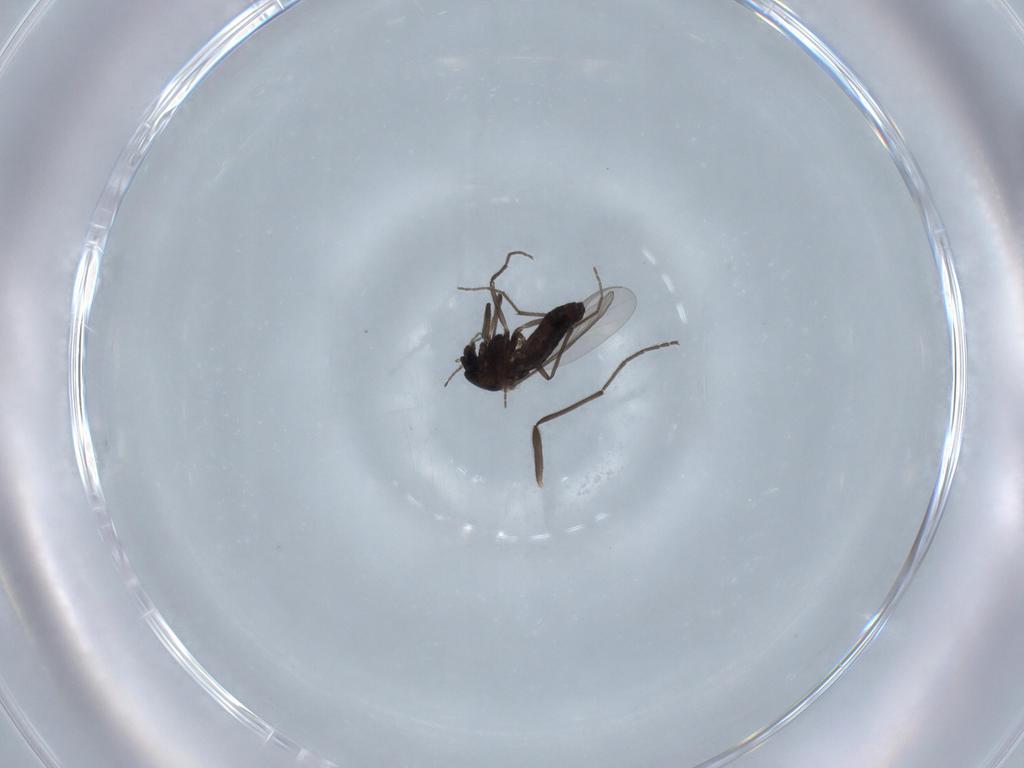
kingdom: Animalia
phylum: Arthropoda
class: Insecta
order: Diptera
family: Chironomidae
